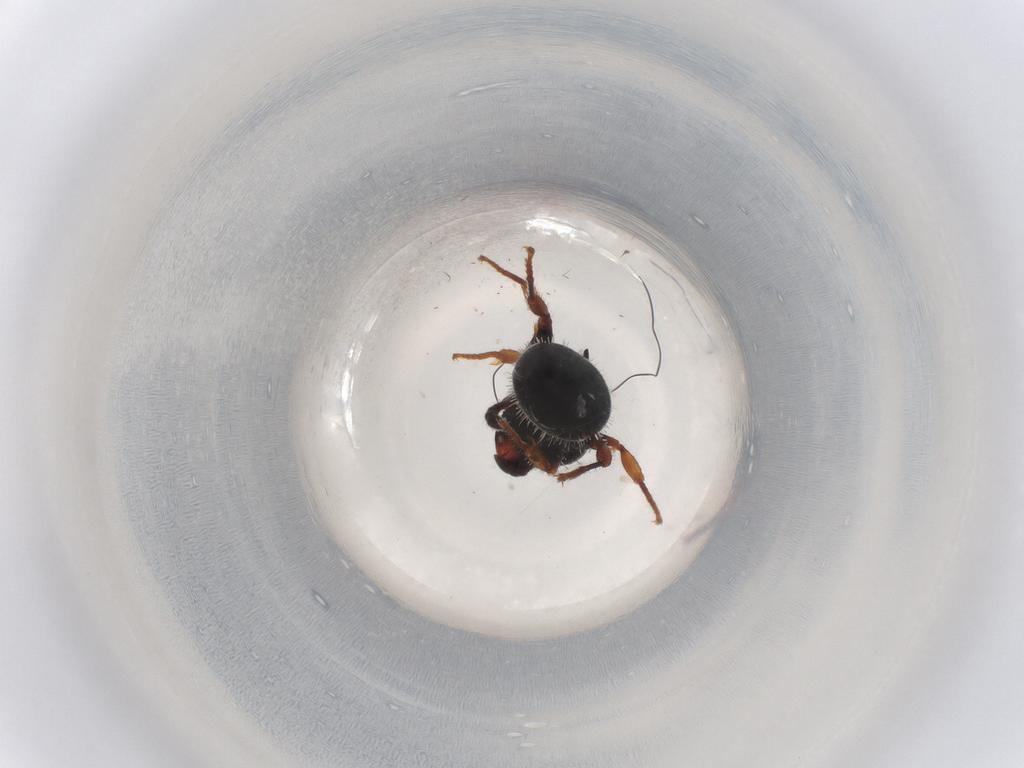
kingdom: Animalia
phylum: Arthropoda
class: Insecta
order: Hymenoptera
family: Formicidae
